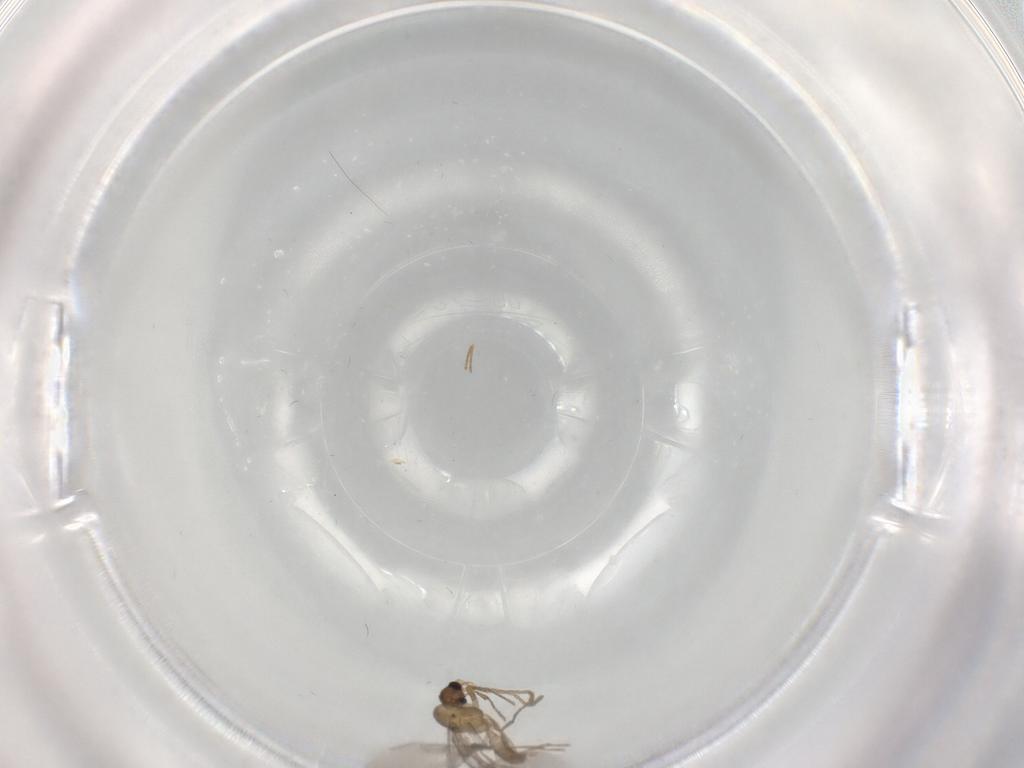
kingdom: Animalia
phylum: Arthropoda
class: Insecta
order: Hymenoptera
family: Formicidae
